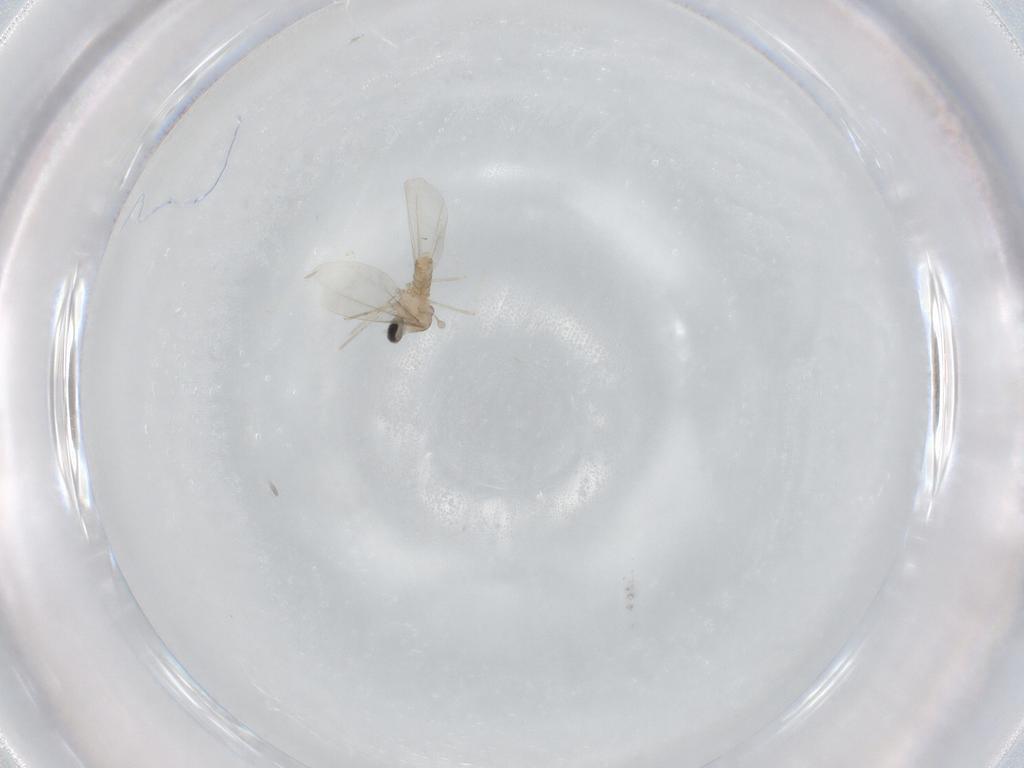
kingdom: Animalia
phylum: Arthropoda
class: Insecta
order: Diptera
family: Cecidomyiidae
